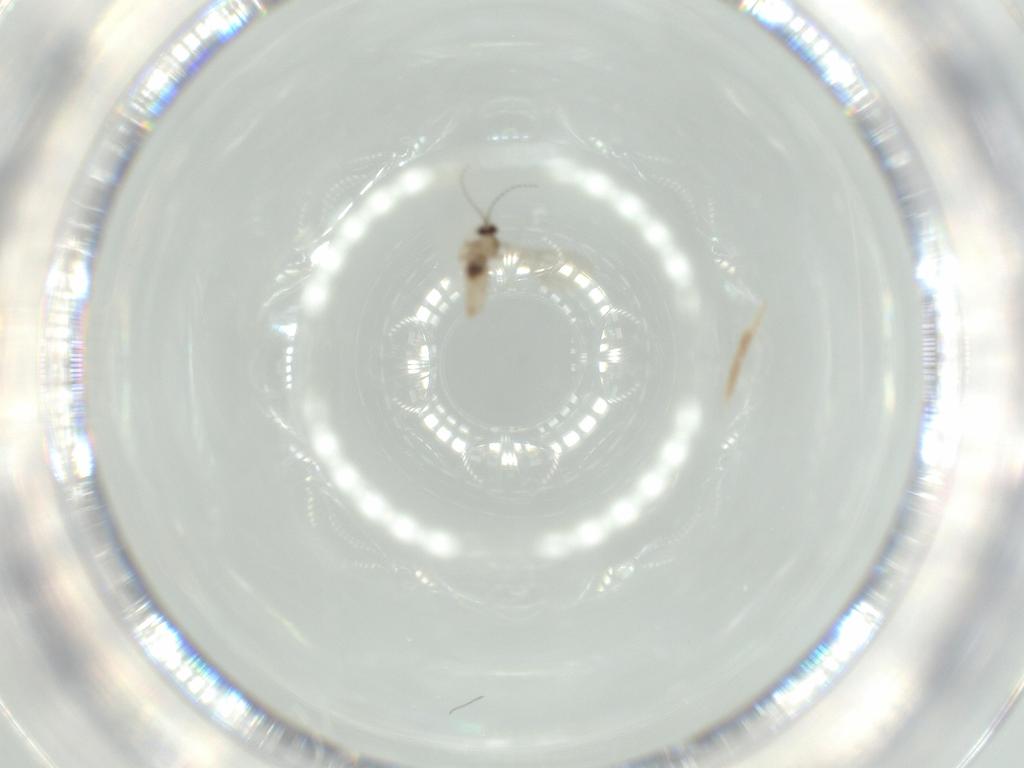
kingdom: Animalia
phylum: Arthropoda
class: Insecta
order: Diptera
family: Cecidomyiidae
